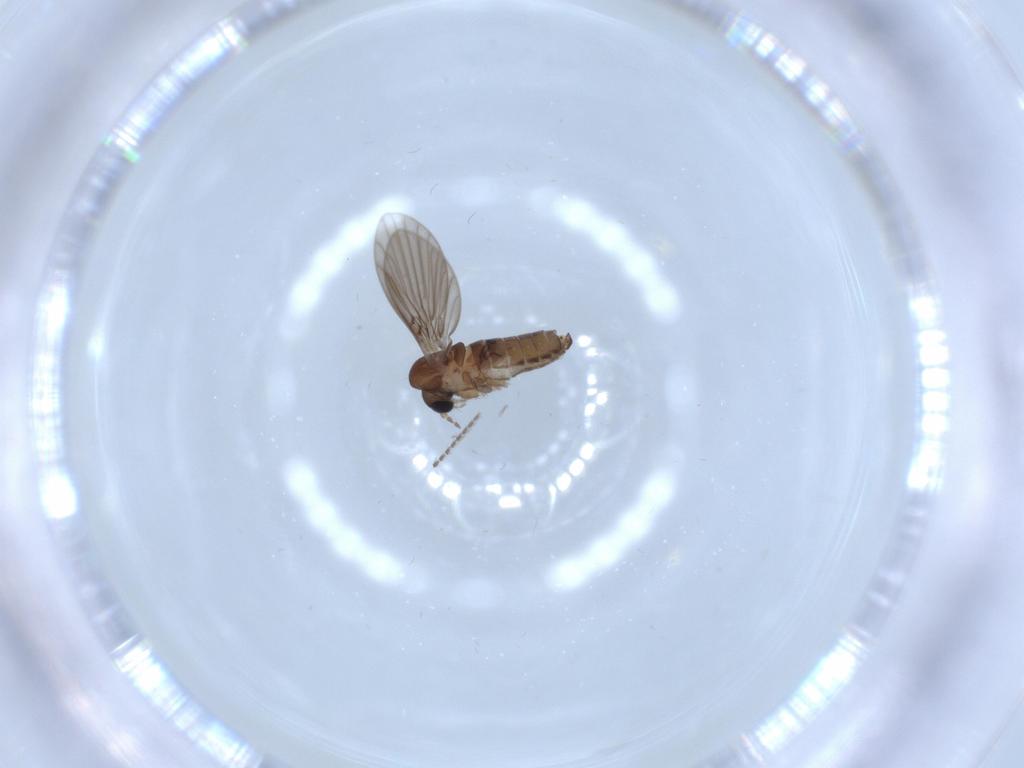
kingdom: Animalia
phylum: Arthropoda
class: Insecta
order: Diptera
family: Psychodidae
